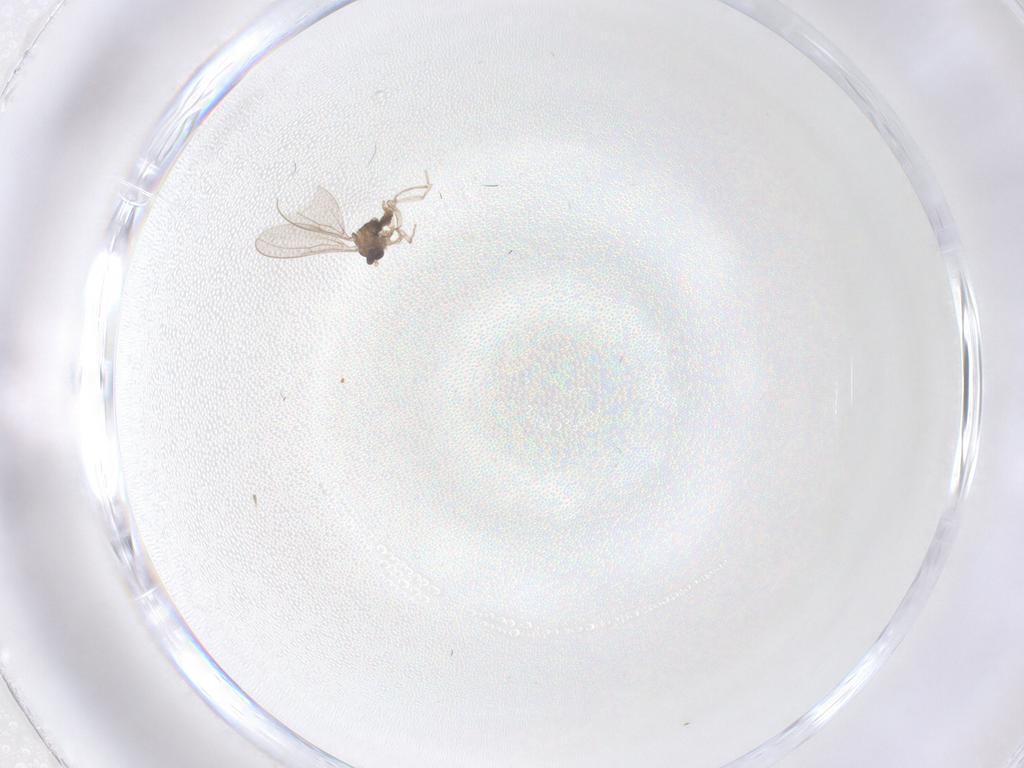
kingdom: Animalia
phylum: Arthropoda
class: Insecta
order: Diptera
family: Cecidomyiidae
